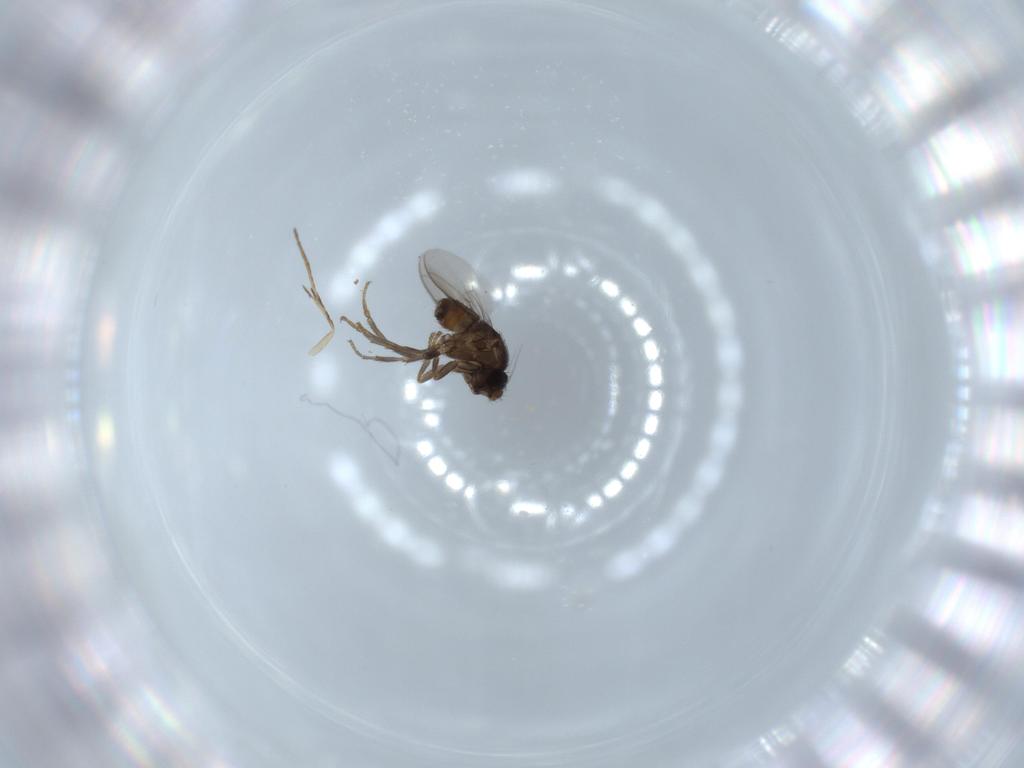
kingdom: Animalia
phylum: Arthropoda
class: Insecta
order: Diptera
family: Sphaeroceridae
